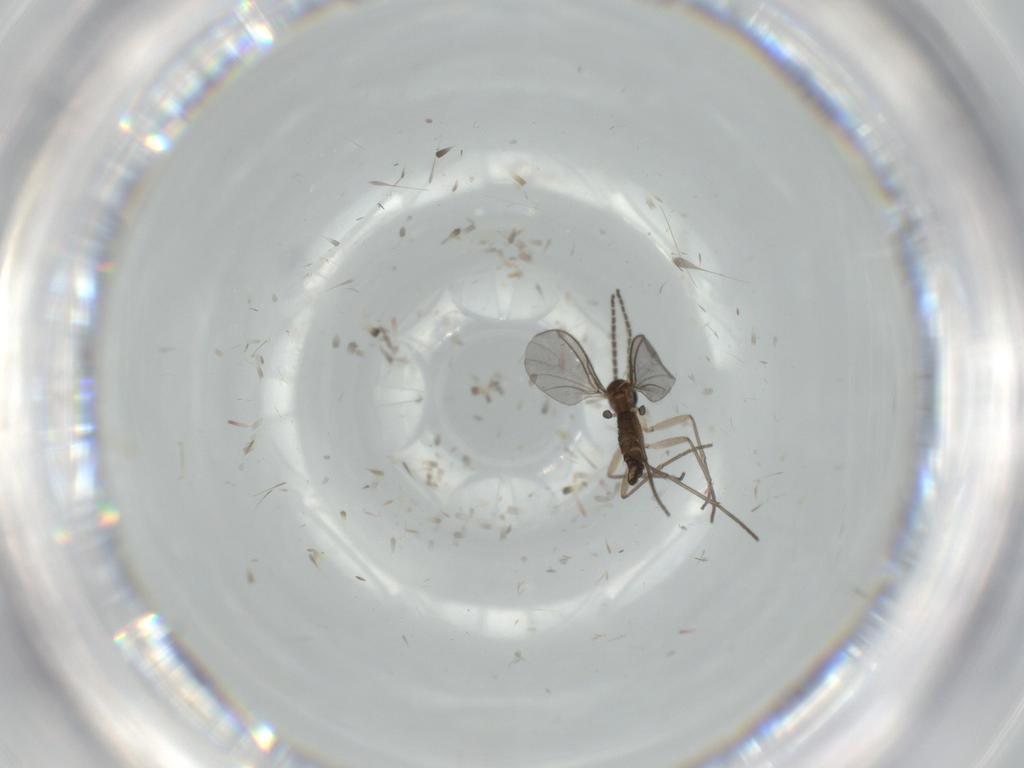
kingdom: Animalia
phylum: Arthropoda
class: Insecta
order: Diptera
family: Sciaridae
